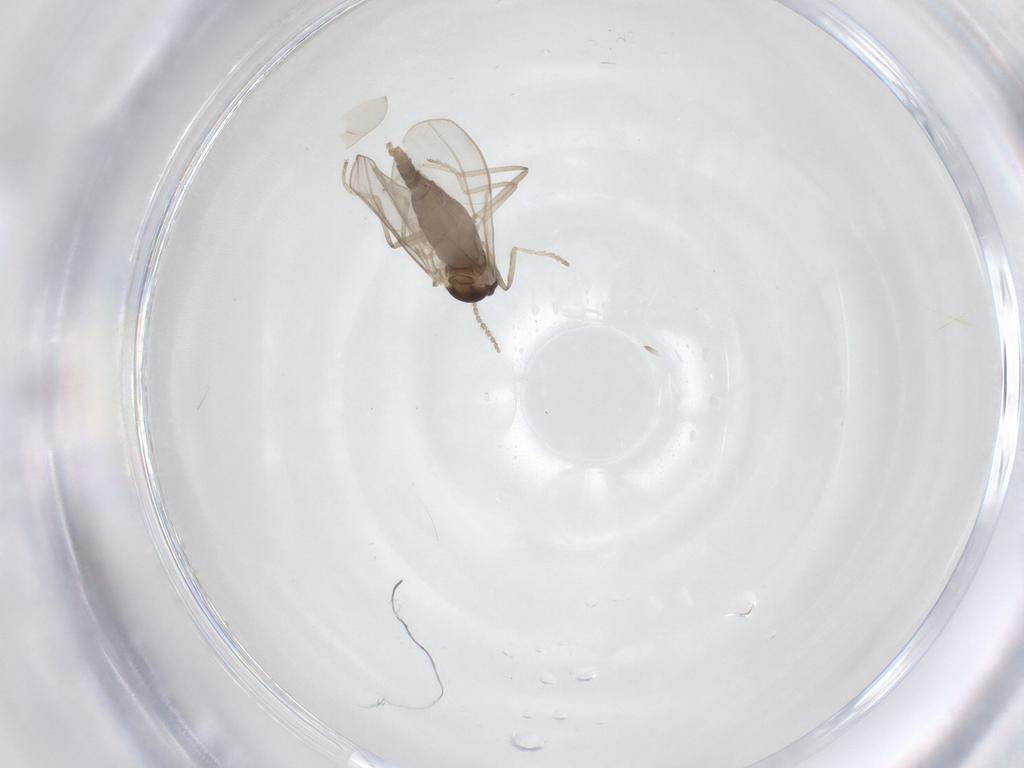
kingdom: Animalia
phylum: Arthropoda
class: Insecta
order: Diptera
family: Cecidomyiidae
